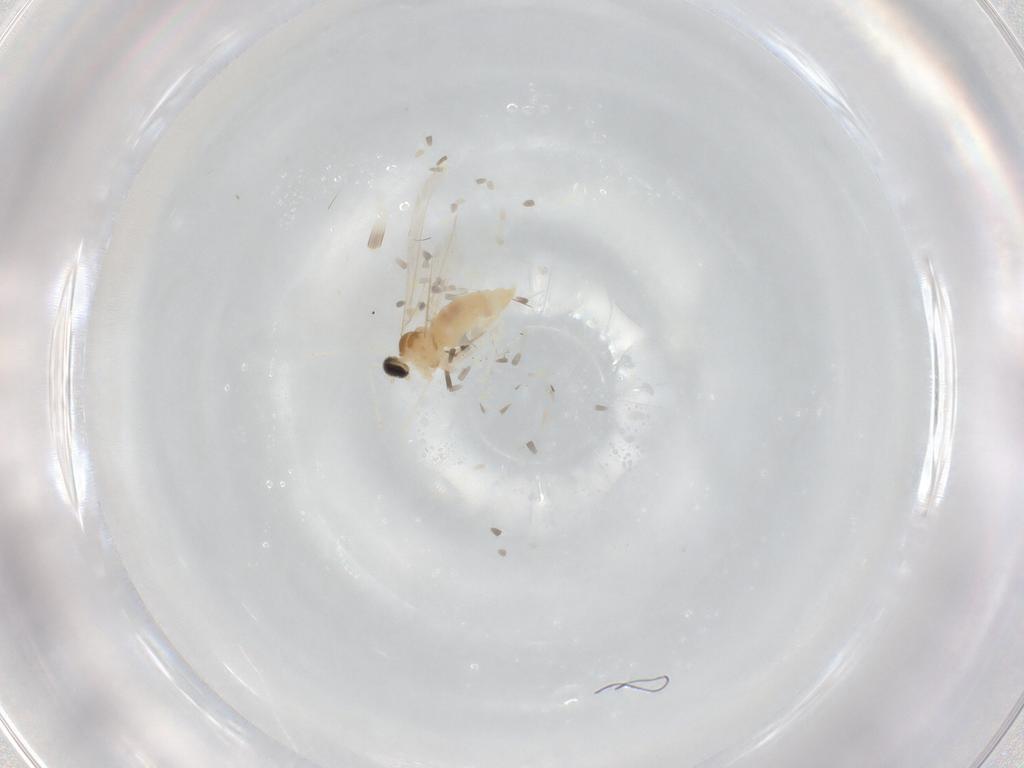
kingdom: Animalia
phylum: Arthropoda
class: Insecta
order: Diptera
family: Cecidomyiidae
